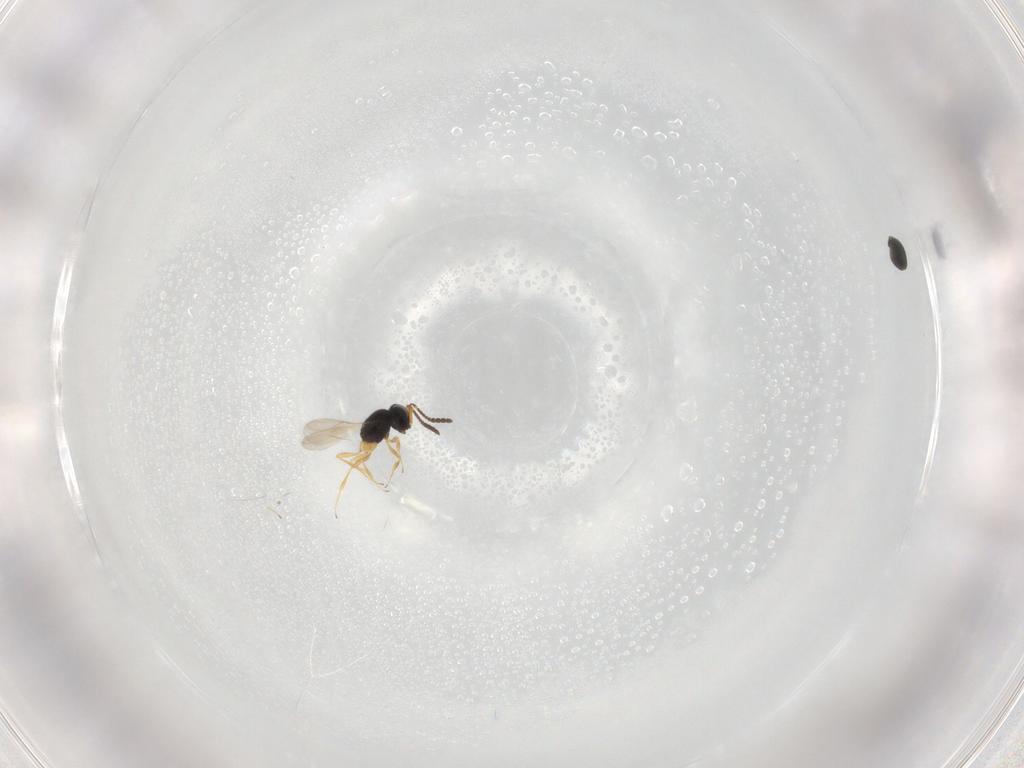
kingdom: Animalia
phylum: Arthropoda
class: Insecta
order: Hymenoptera
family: Scelionidae
